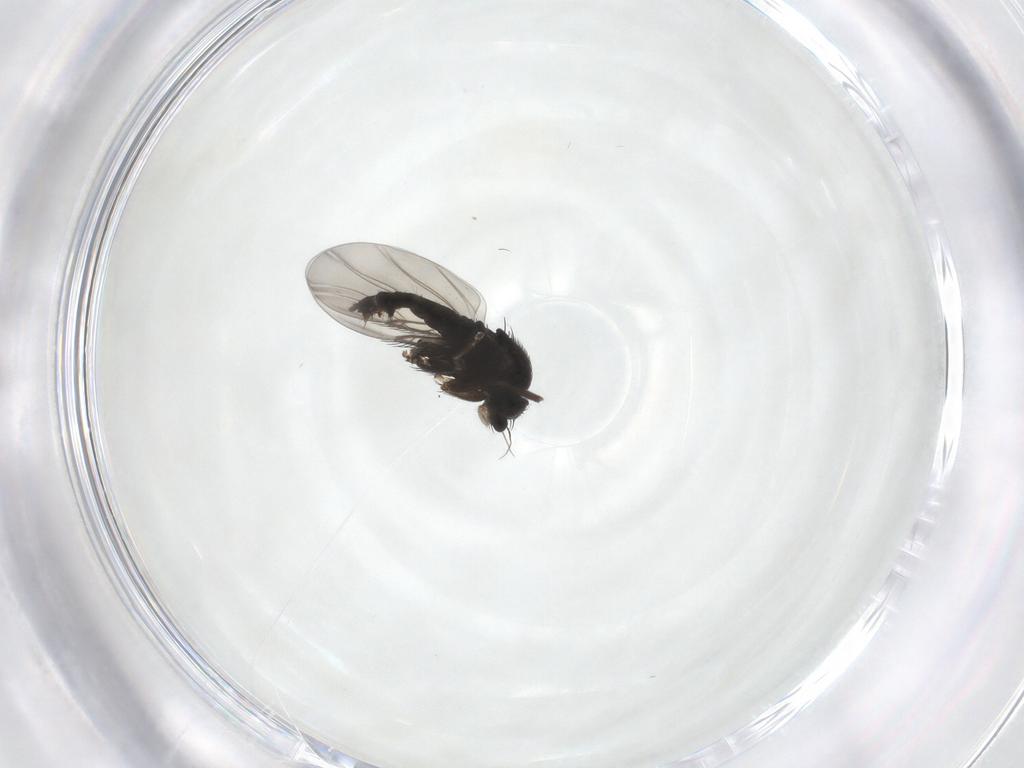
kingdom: Animalia
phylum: Arthropoda
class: Insecta
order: Diptera
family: Phoridae
